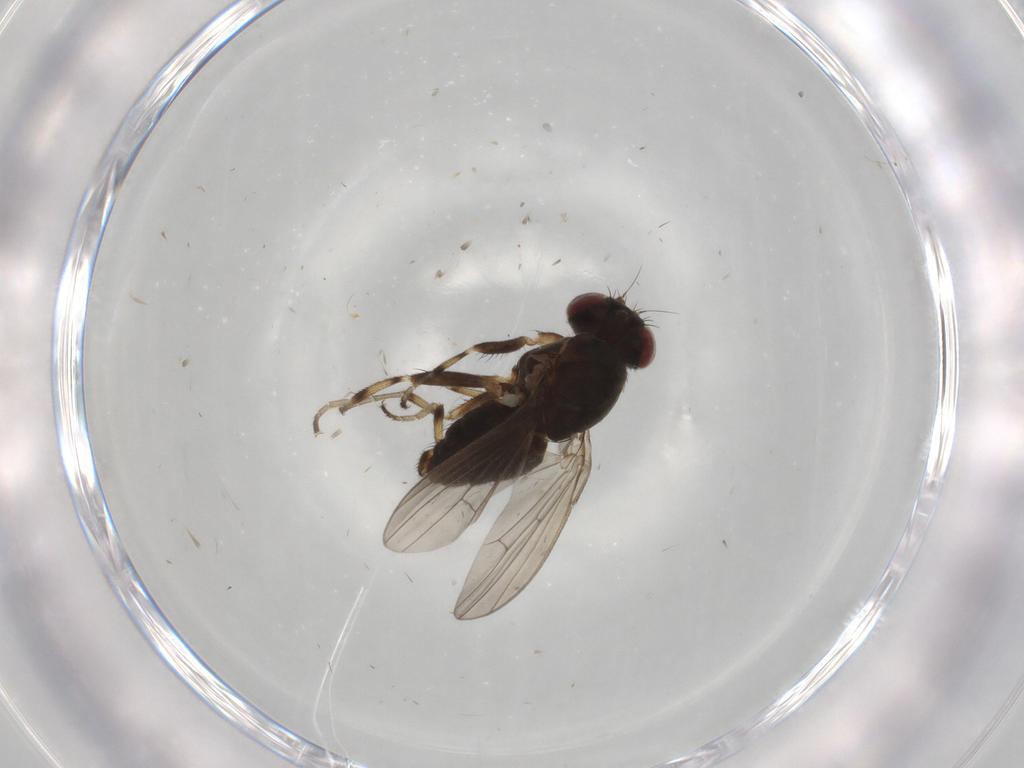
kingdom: Animalia
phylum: Arthropoda
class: Insecta
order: Diptera
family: Heleomyzidae
